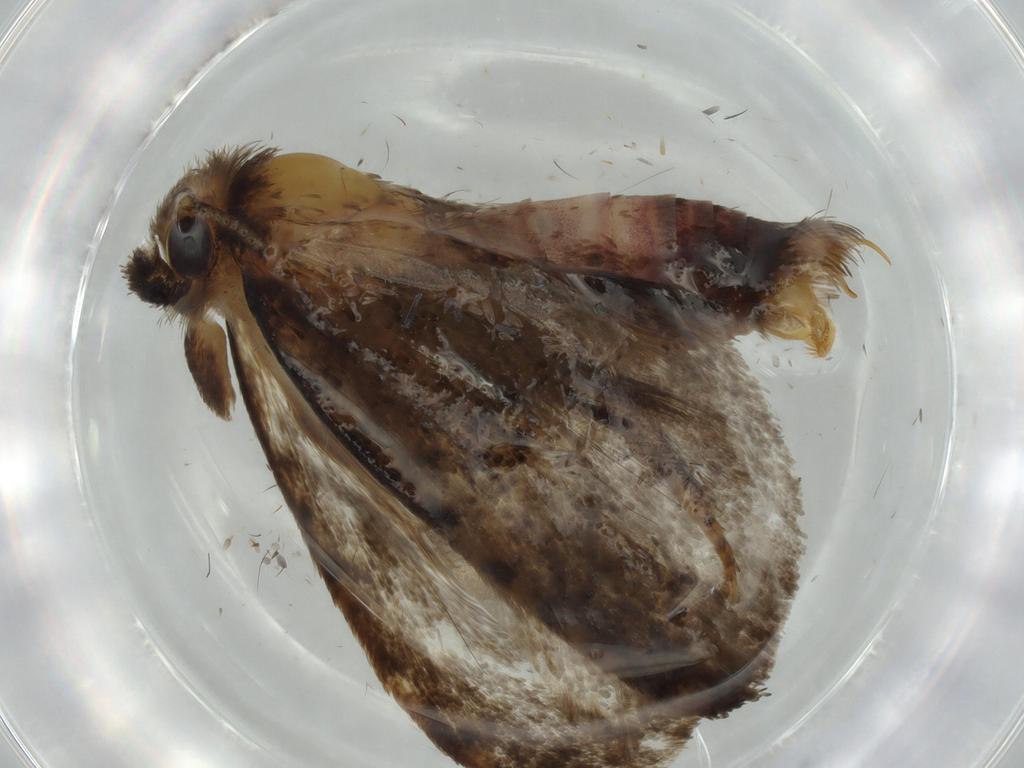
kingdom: Animalia
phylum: Arthropoda
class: Insecta
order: Lepidoptera
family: Tineidae
